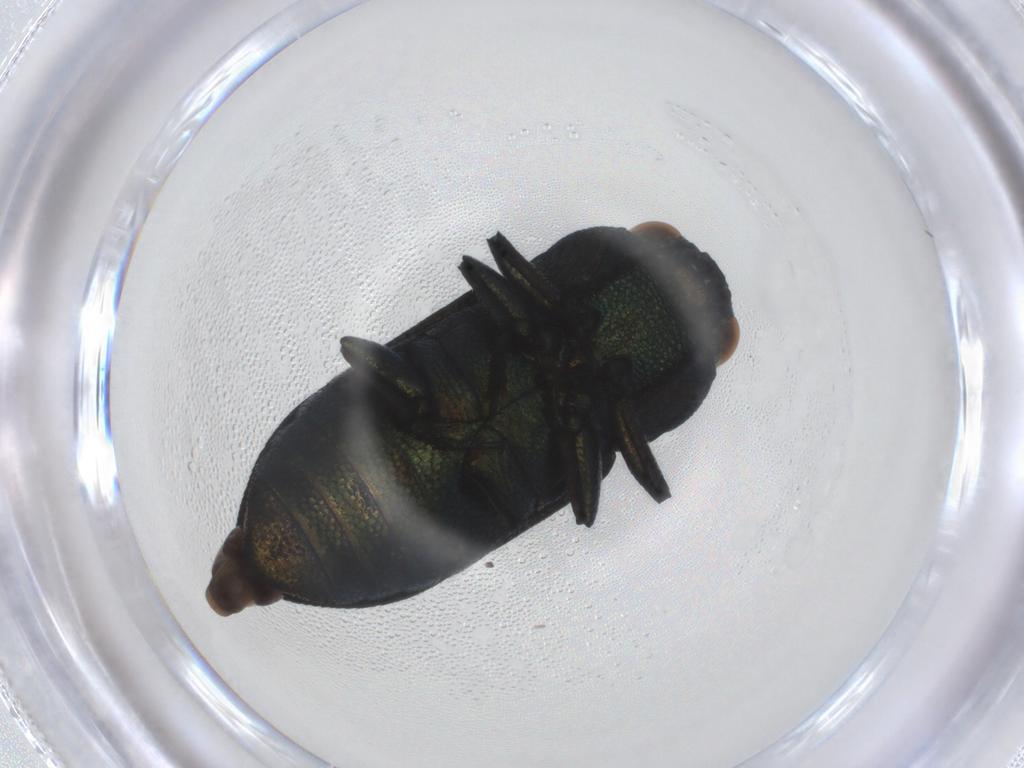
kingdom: Animalia
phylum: Arthropoda
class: Insecta
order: Coleoptera
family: Buprestidae
